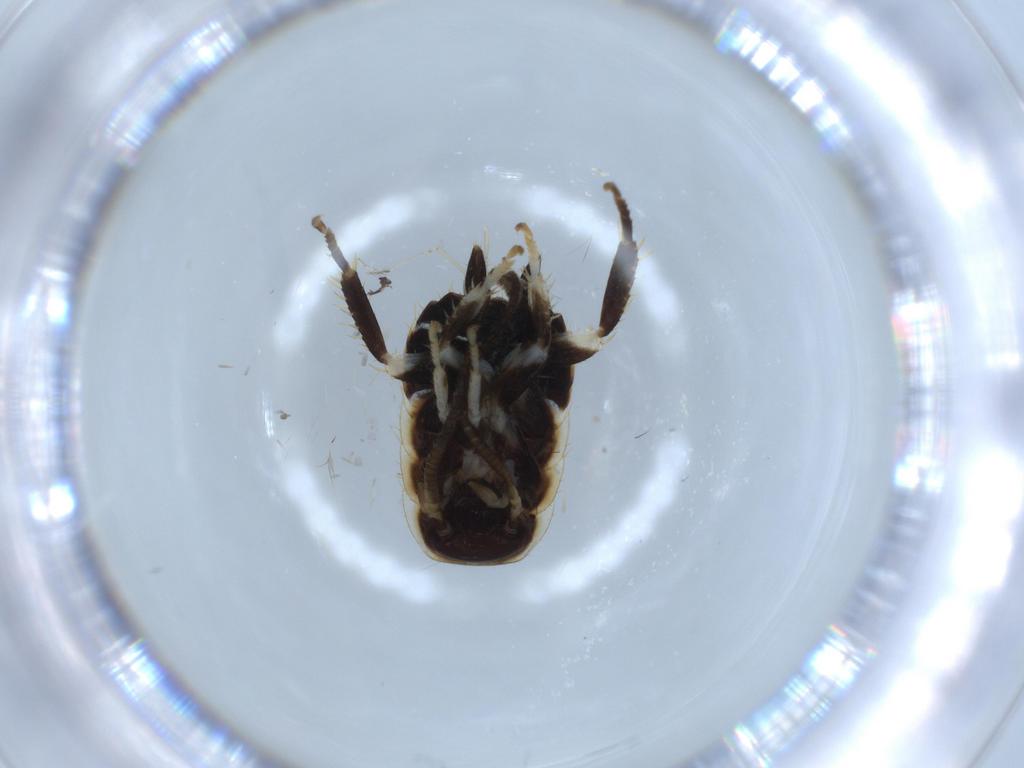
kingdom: Animalia
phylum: Arthropoda
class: Insecta
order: Blattodea
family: Ectobiidae
